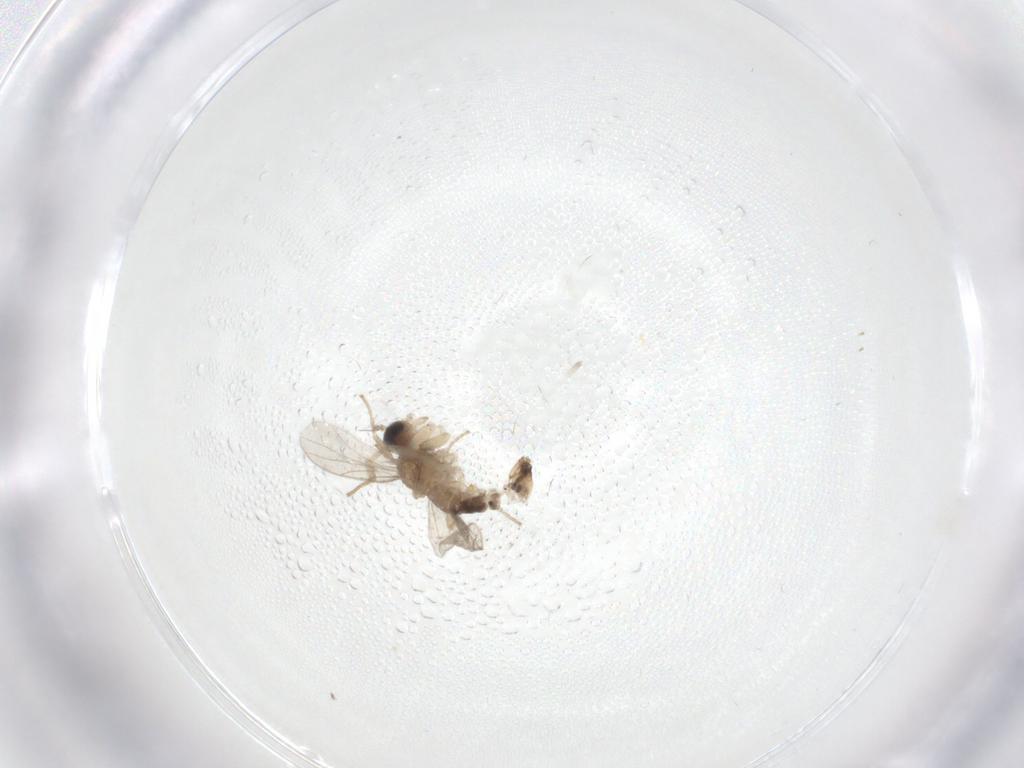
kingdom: Animalia
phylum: Arthropoda
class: Insecta
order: Diptera
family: Hybotidae
